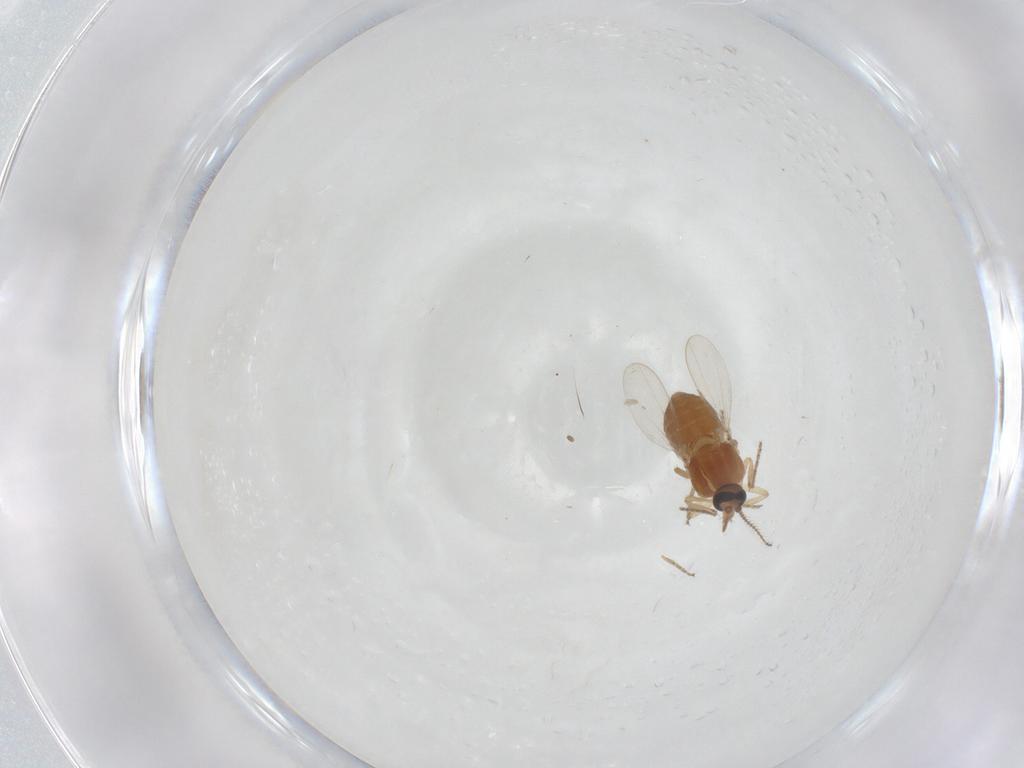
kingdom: Animalia
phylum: Arthropoda
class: Insecta
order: Diptera
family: Ceratopogonidae
